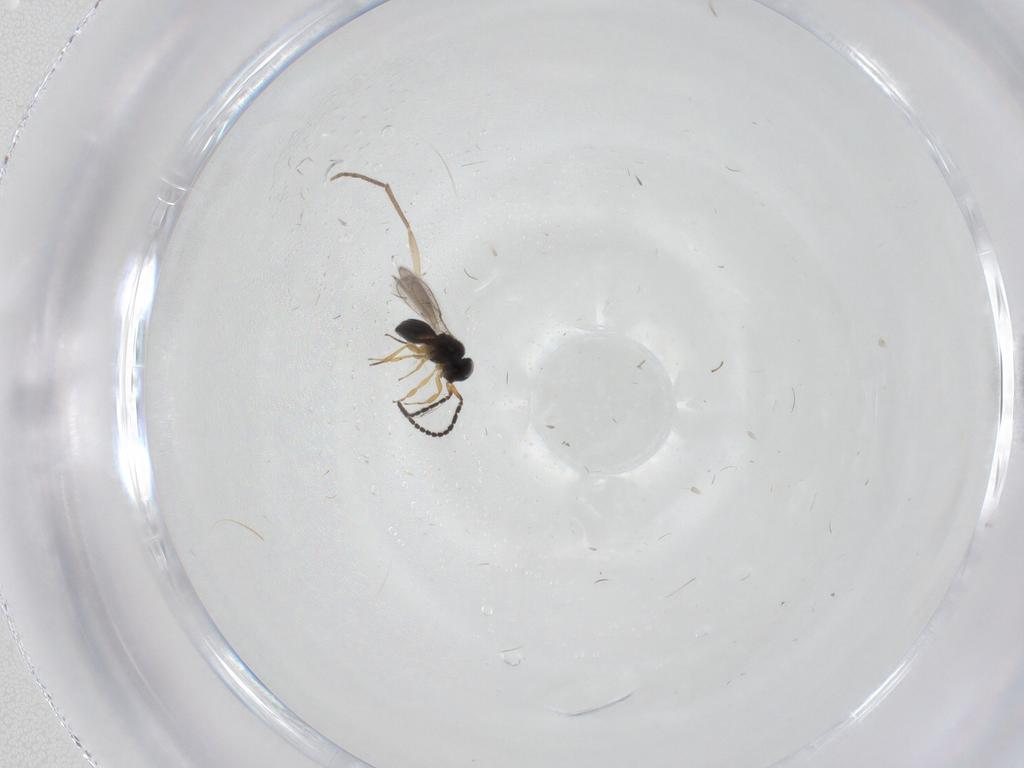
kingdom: Animalia
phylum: Arthropoda
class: Insecta
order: Hymenoptera
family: Scelionidae
